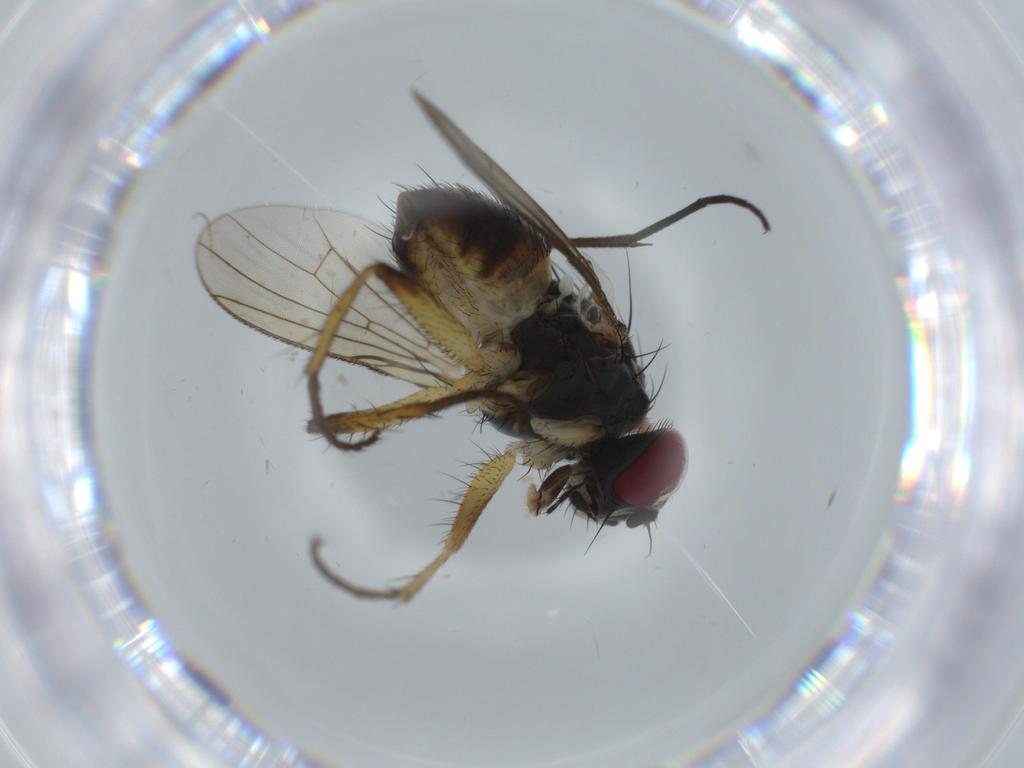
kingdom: Animalia
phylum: Arthropoda
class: Insecta
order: Diptera
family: Muscidae
